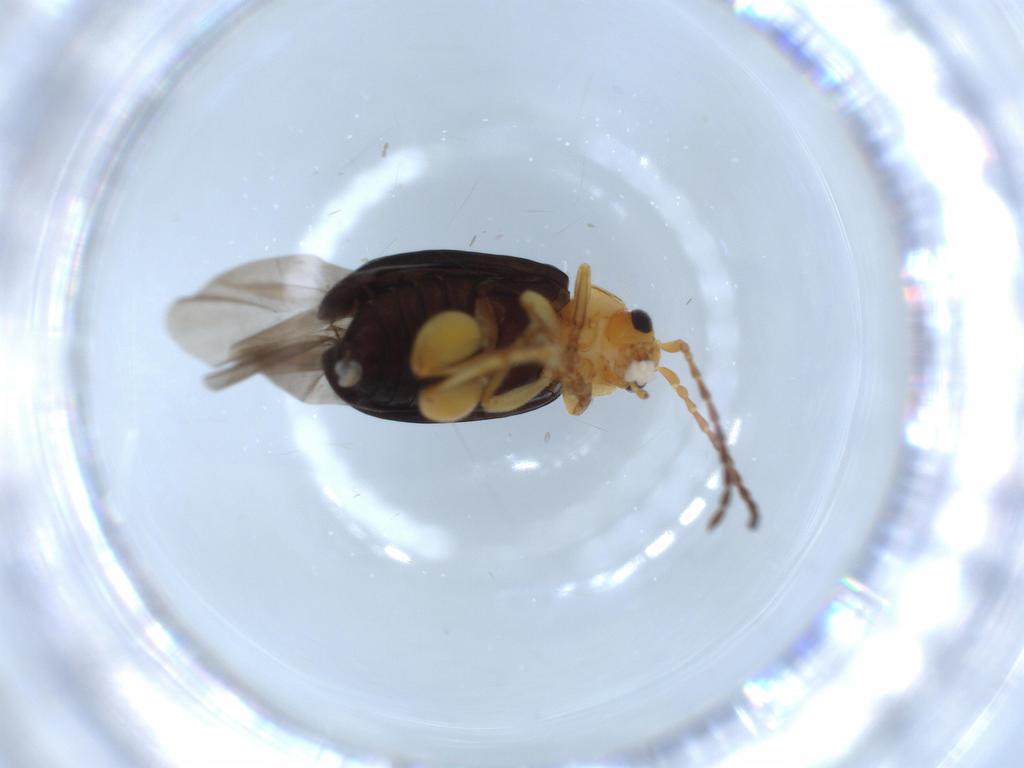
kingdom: Animalia
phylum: Arthropoda
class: Insecta
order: Coleoptera
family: Chrysomelidae
